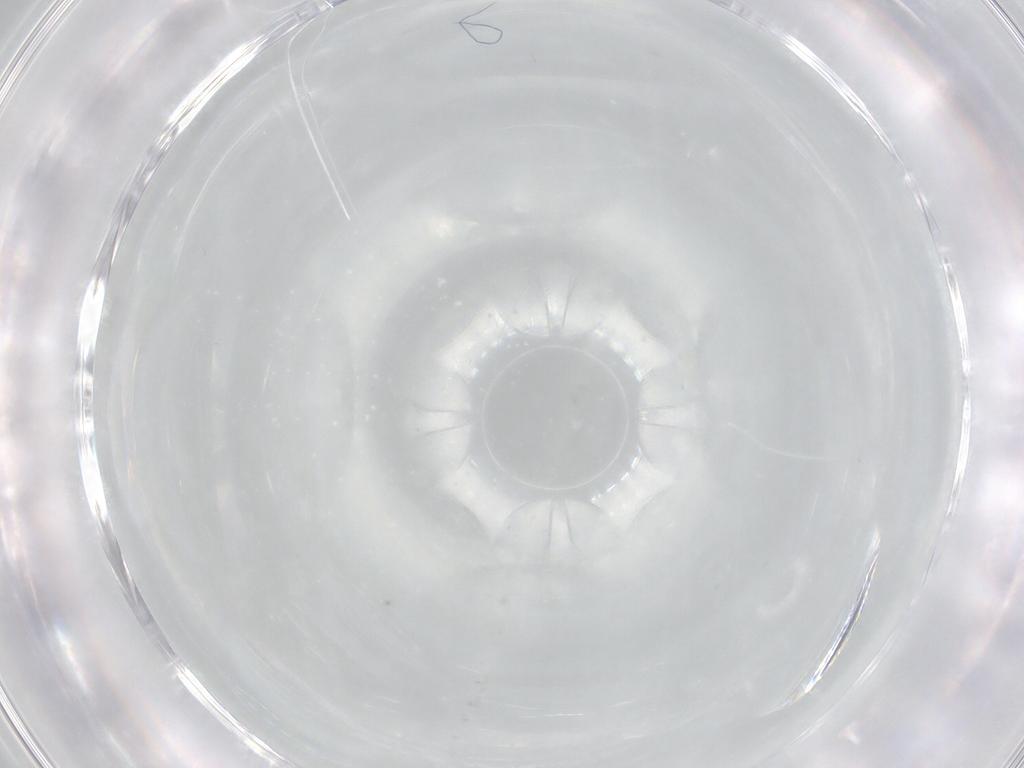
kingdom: Animalia
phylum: Arthropoda
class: Collembola
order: Entomobryomorpha
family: Entomobryidae
